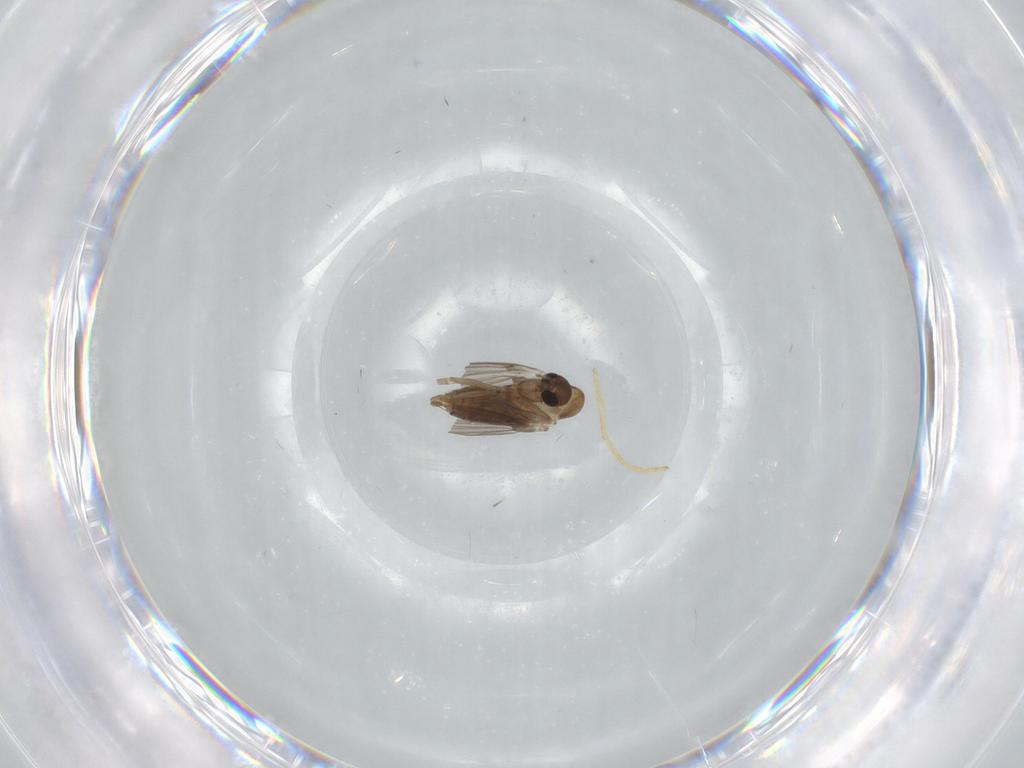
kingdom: Animalia
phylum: Arthropoda
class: Insecta
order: Diptera
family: Chironomidae
